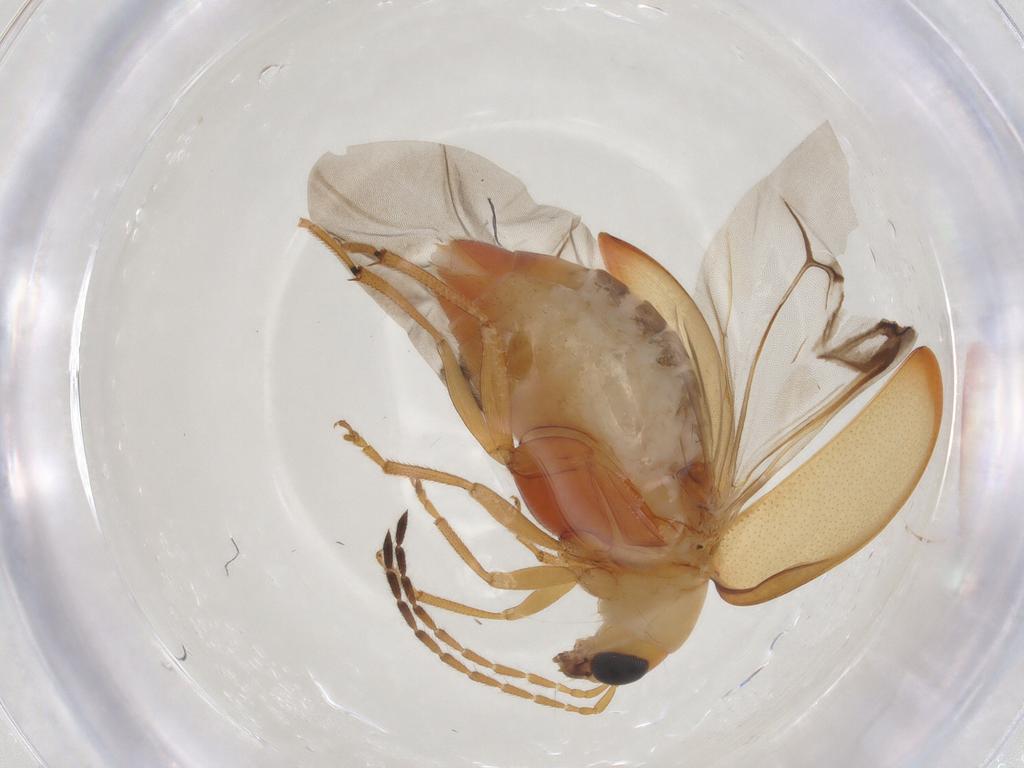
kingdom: Animalia
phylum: Arthropoda
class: Insecta
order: Coleoptera
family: Chrysomelidae
